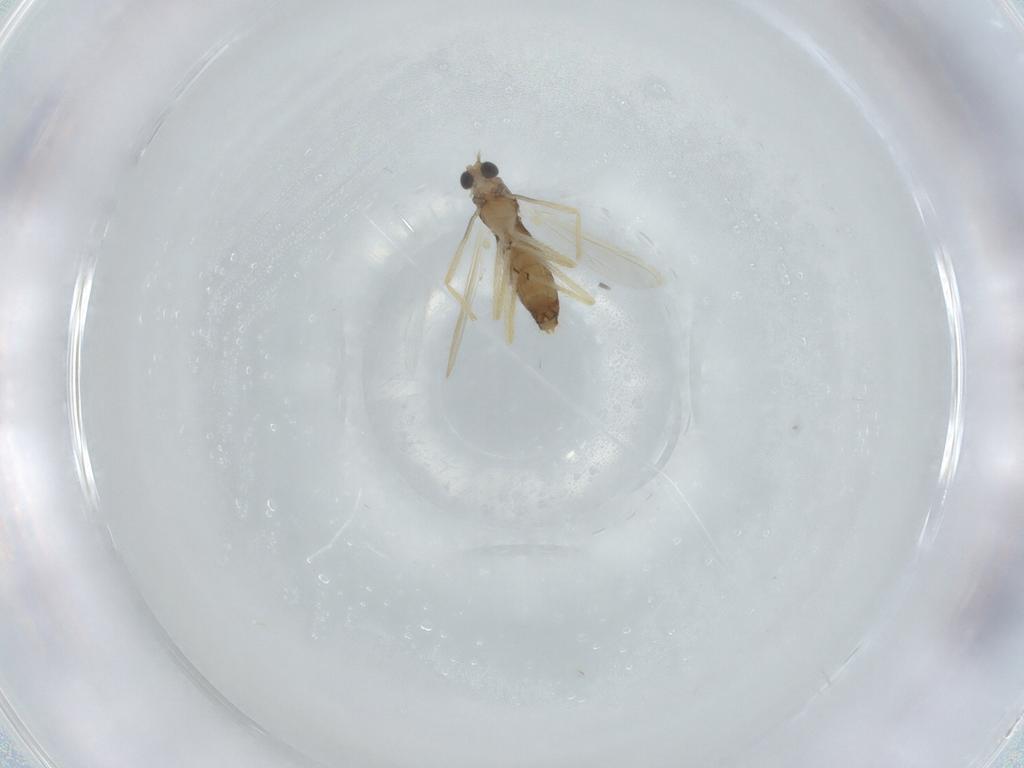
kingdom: Animalia
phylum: Arthropoda
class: Insecta
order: Diptera
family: Chironomidae
